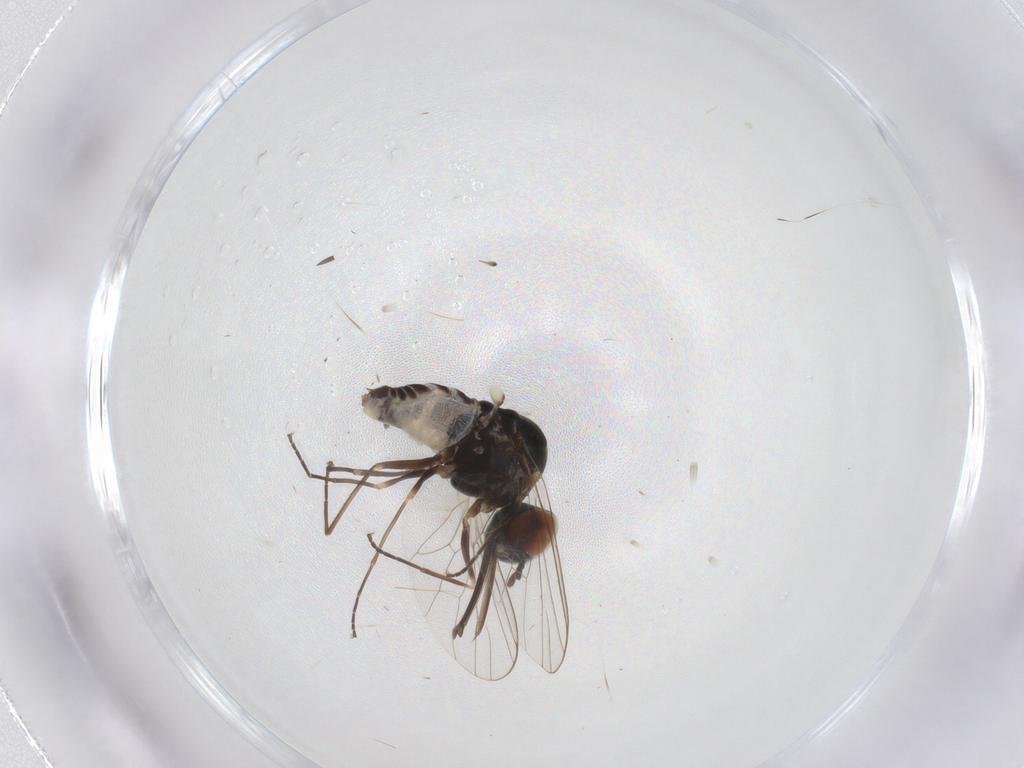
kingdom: Animalia
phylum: Arthropoda
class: Insecta
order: Diptera
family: Bombyliidae
